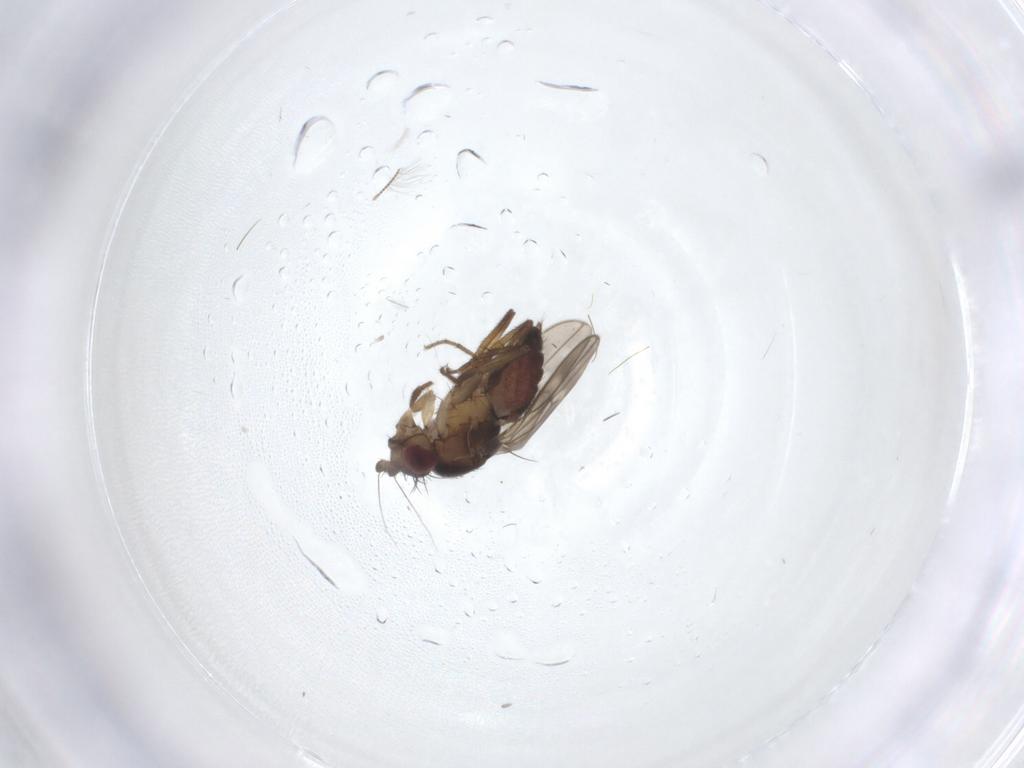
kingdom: Animalia
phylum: Arthropoda
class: Insecta
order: Diptera
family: Sphaeroceridae
